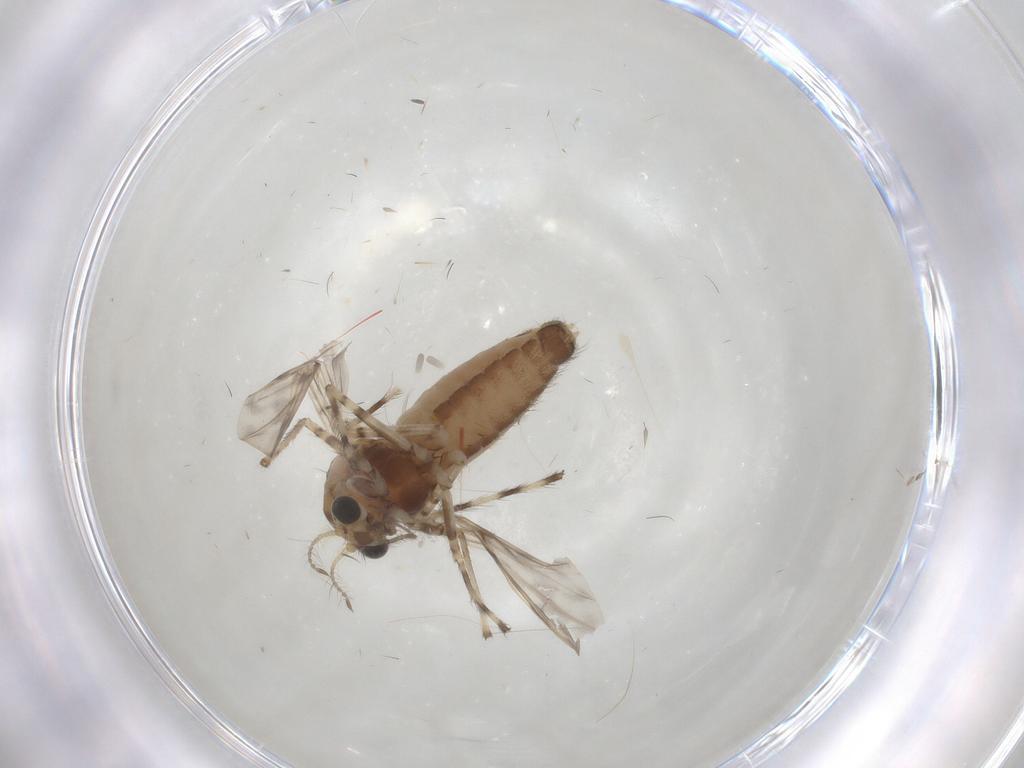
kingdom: Animalia
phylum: Arthropoda
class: Insecta
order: Diptera
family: Chironomidae
